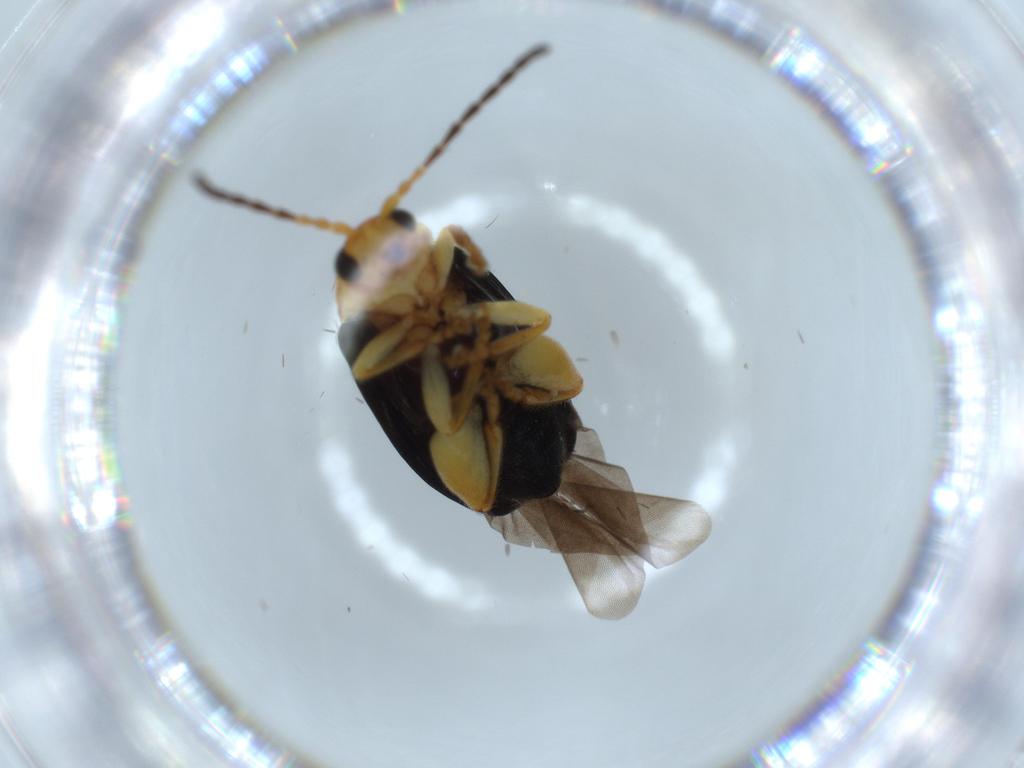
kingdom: Animalia
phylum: Arthropoda
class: Insecta
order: Coleoptera
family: Chrysomelidae
